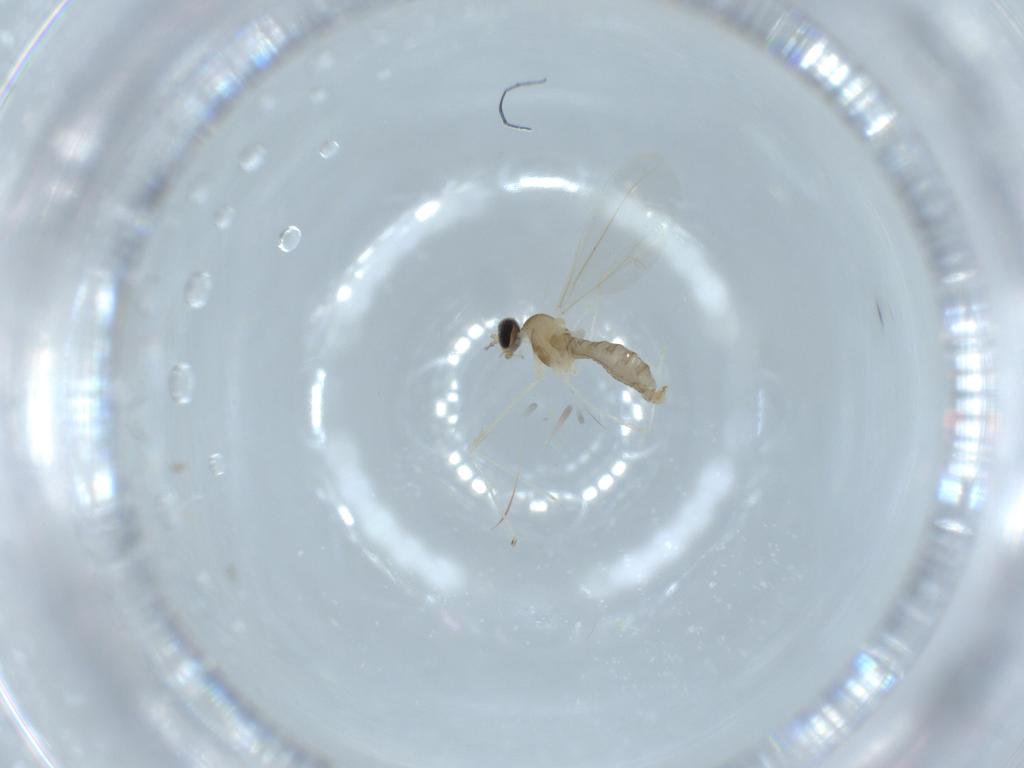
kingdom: Animalia
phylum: Arthropoda
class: Insecta
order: Diptera
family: Cecidomyiidae
